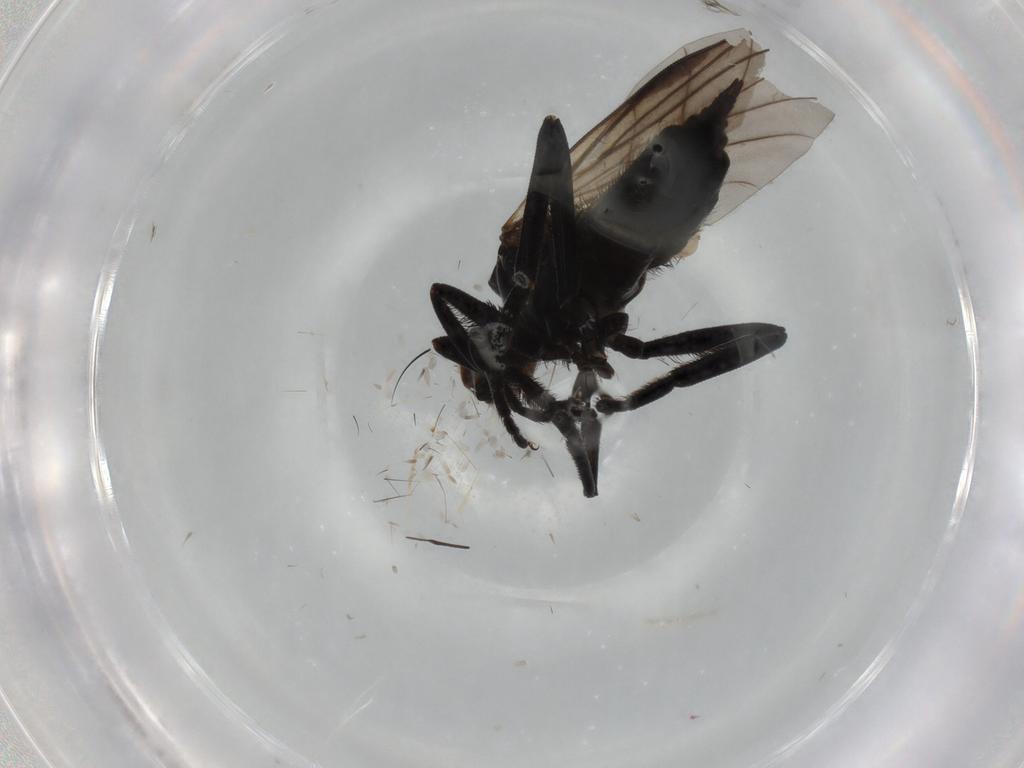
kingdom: Animalia
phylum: Arthropoda
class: Insecta
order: Diptera
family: Empididae
